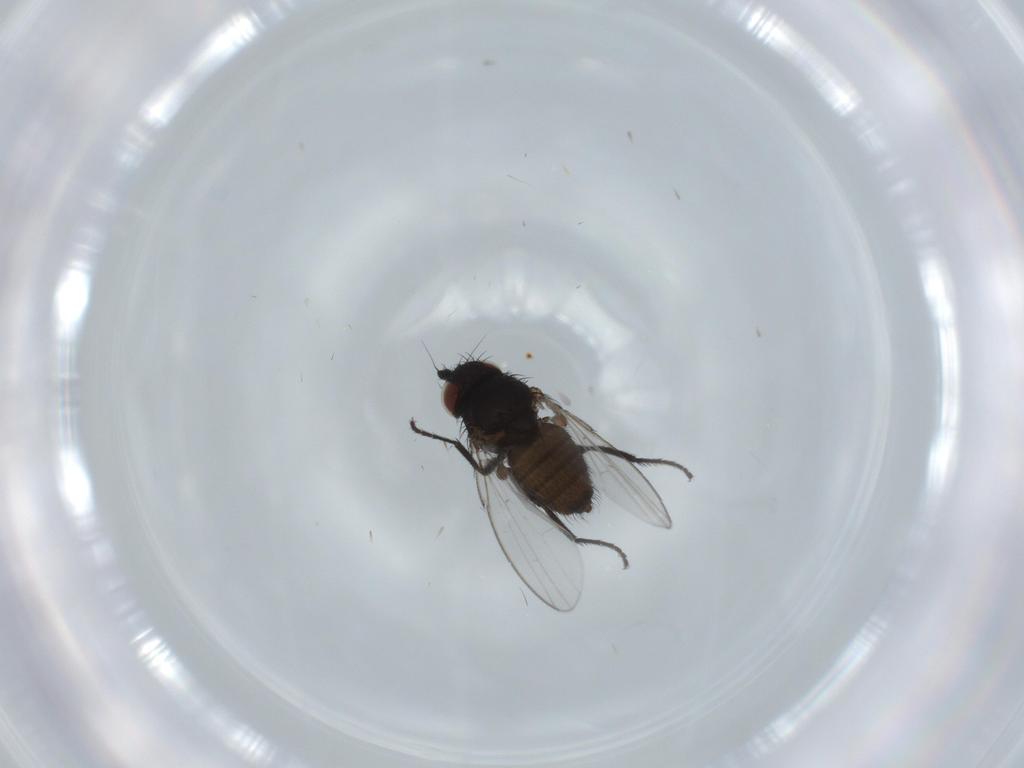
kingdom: Animalia
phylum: Arthropoda
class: Insecta
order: Diptera
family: Milichiidae
